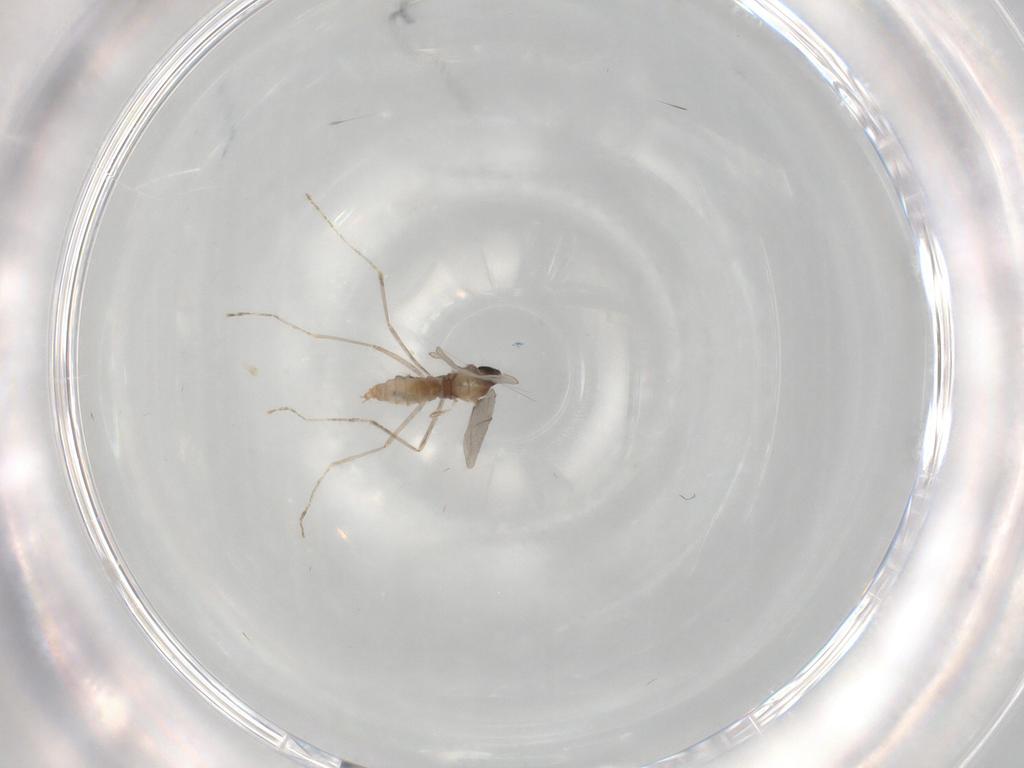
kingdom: Animalia
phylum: Arthropoda
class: Insecta
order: Diptera
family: Cecidomyiidae
